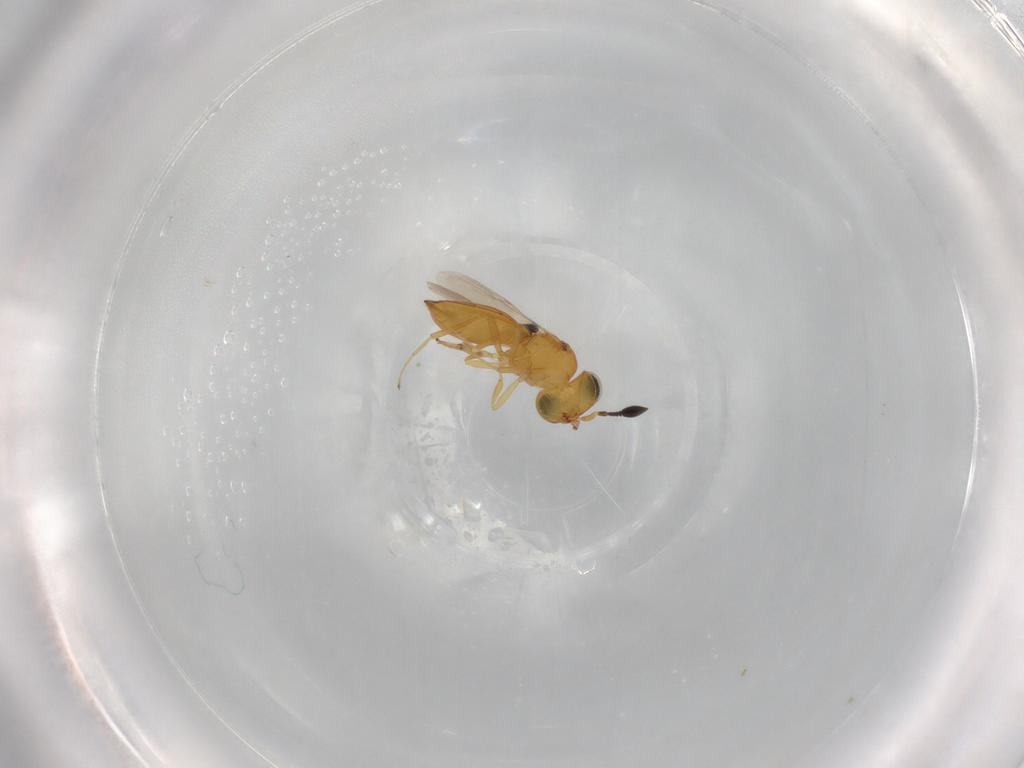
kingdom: Animalia
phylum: Arthropoda
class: Insecta
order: Hymenoptera
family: Scelionidae
